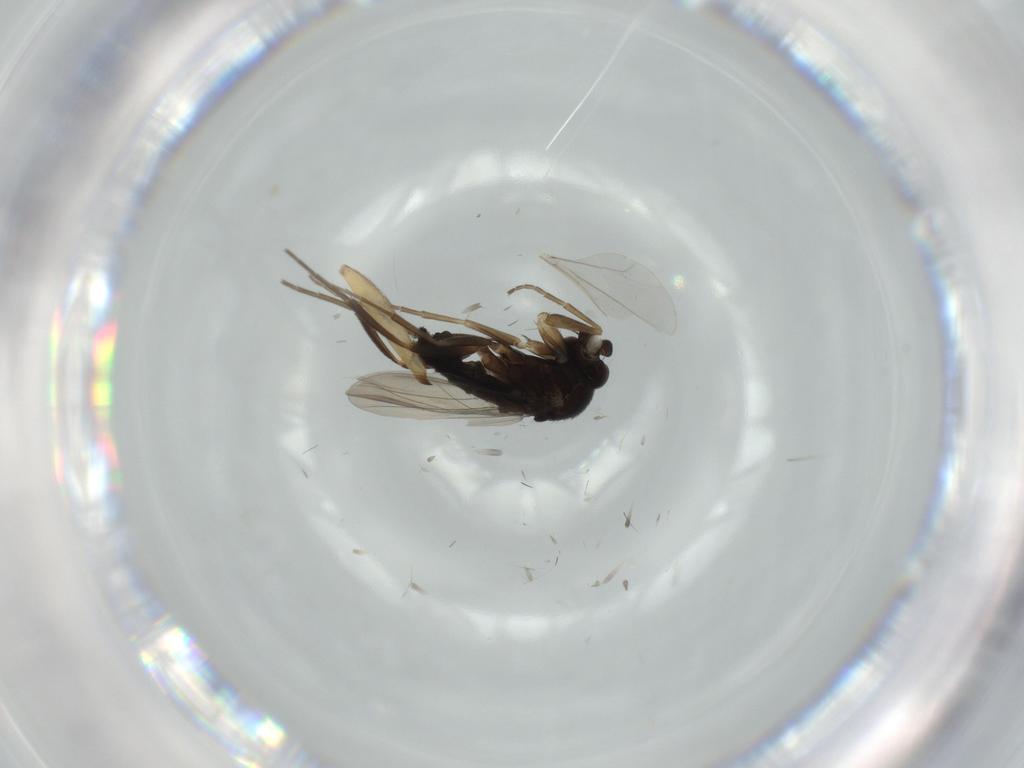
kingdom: Animalia
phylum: Arthropoda
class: Insecta
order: Diptera
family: Phoridae
